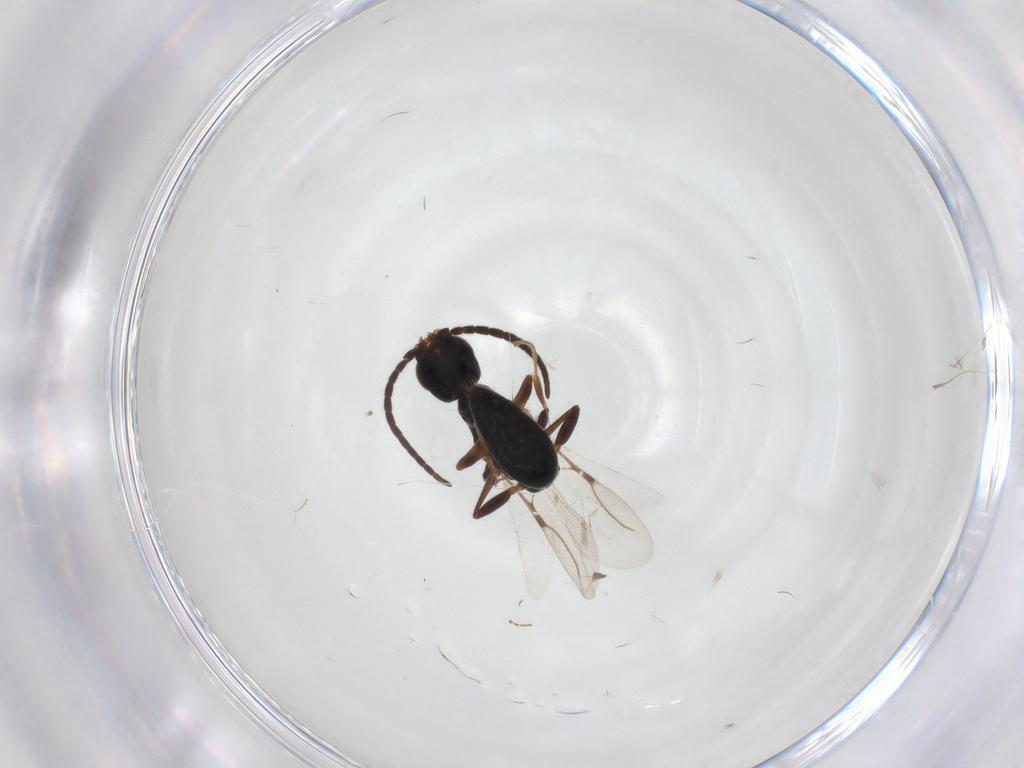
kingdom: Animalia
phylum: Arthropoda
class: Insecta
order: Hymenoptera
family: Bethylidae
